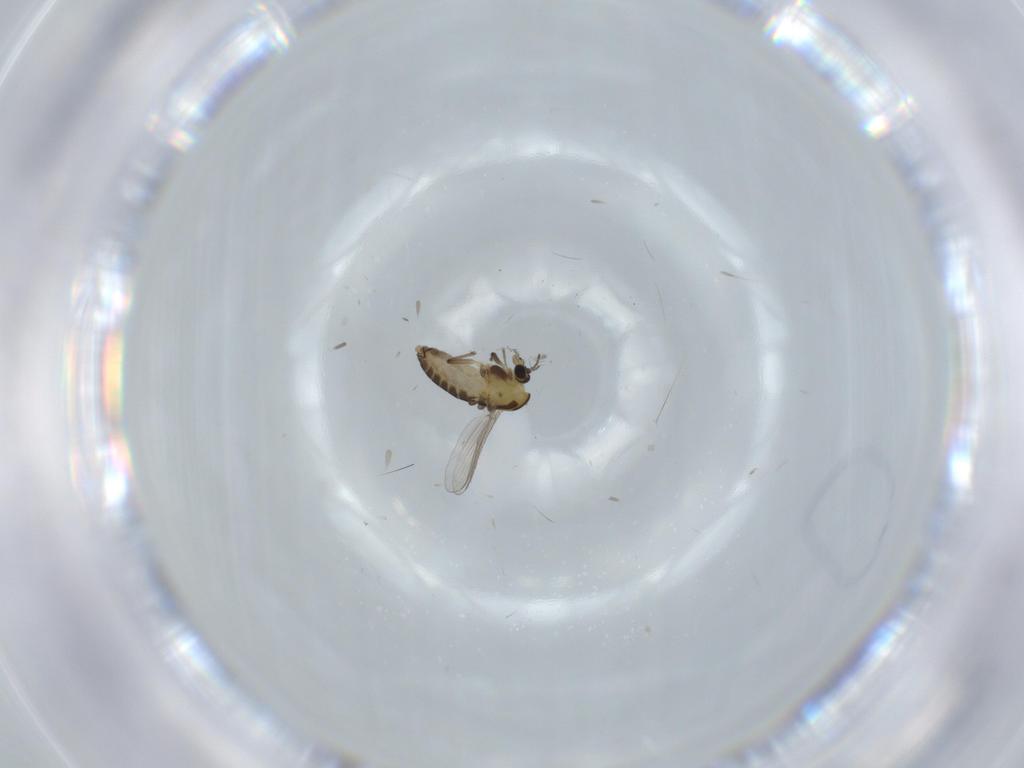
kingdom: Animalia
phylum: Arthropoda
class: Insecta
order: Diptera
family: Chironomidae
